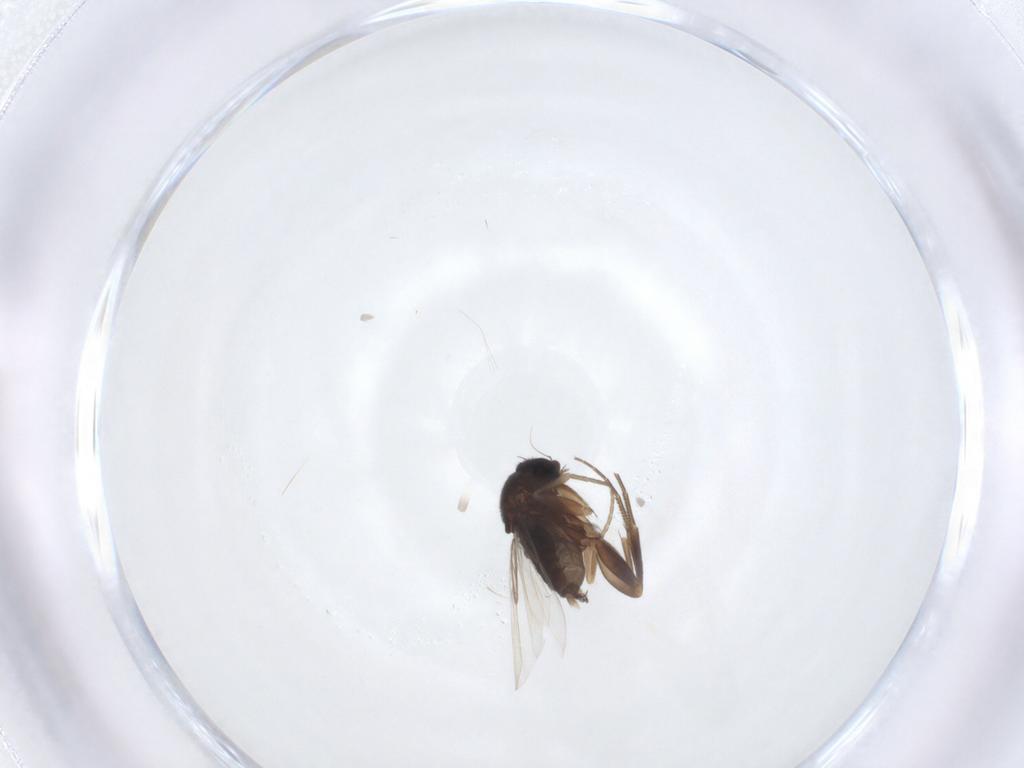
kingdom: Animalia
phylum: Arthropoda
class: Insecta
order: Diptera
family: Phoridae
